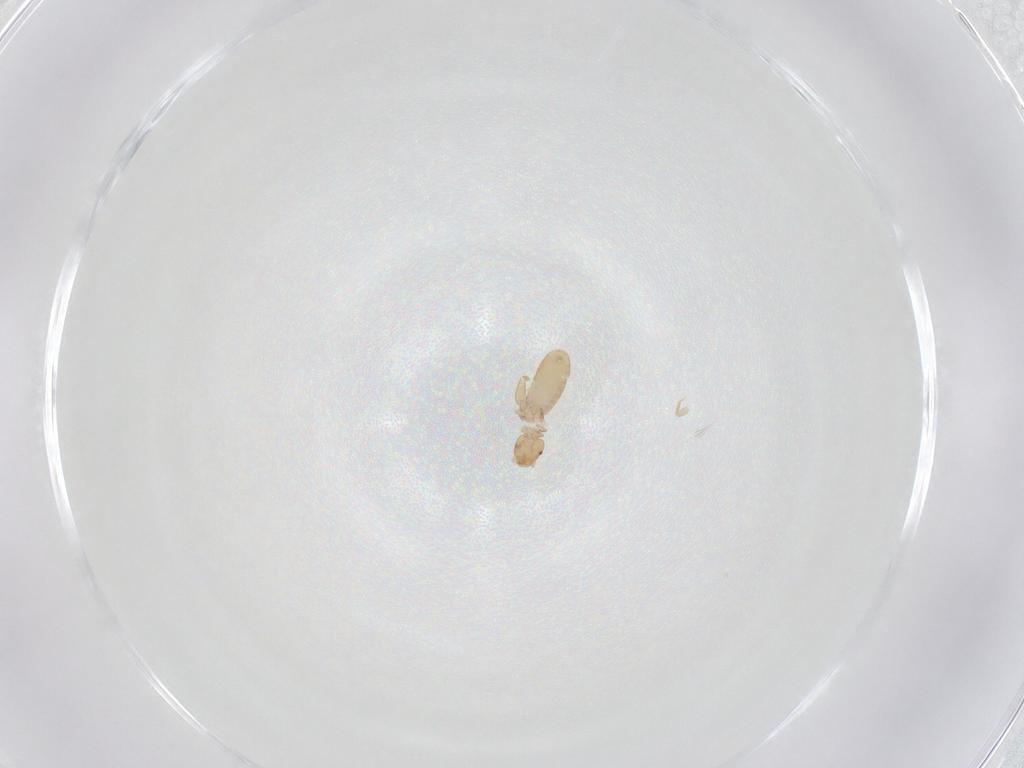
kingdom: Animalia
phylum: Arthropoda
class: Insecta
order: Psocodea
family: Liposcelididae
